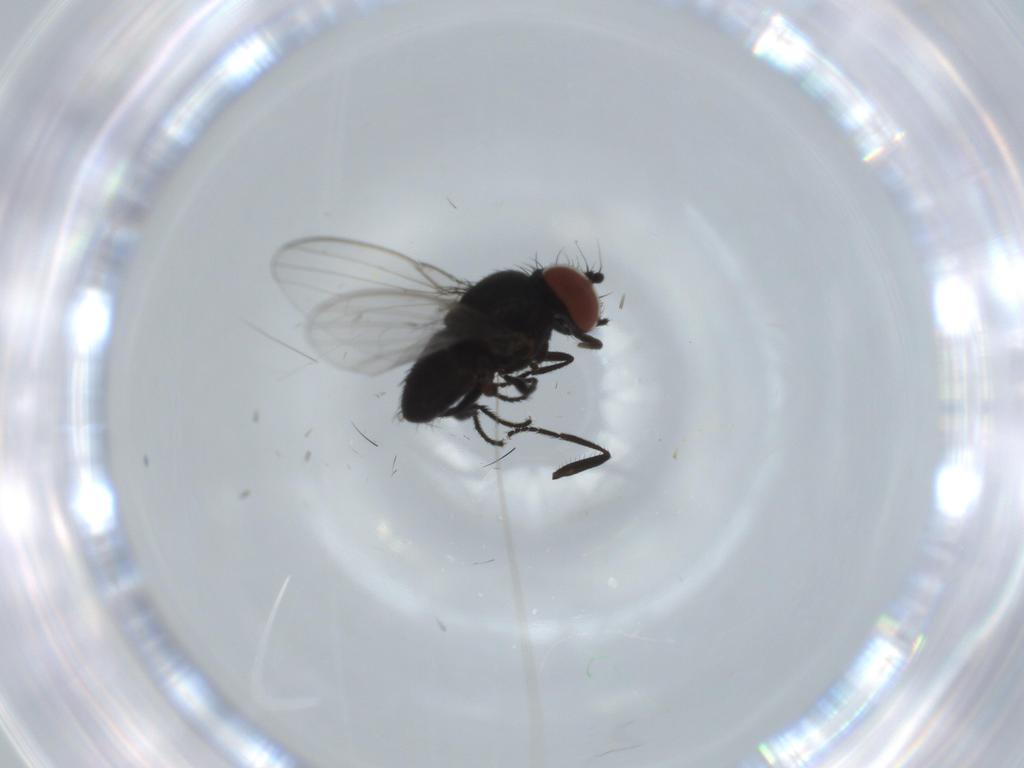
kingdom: Animalia
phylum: Arthropoda
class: Insecta
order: Diptera
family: Milichiidae
